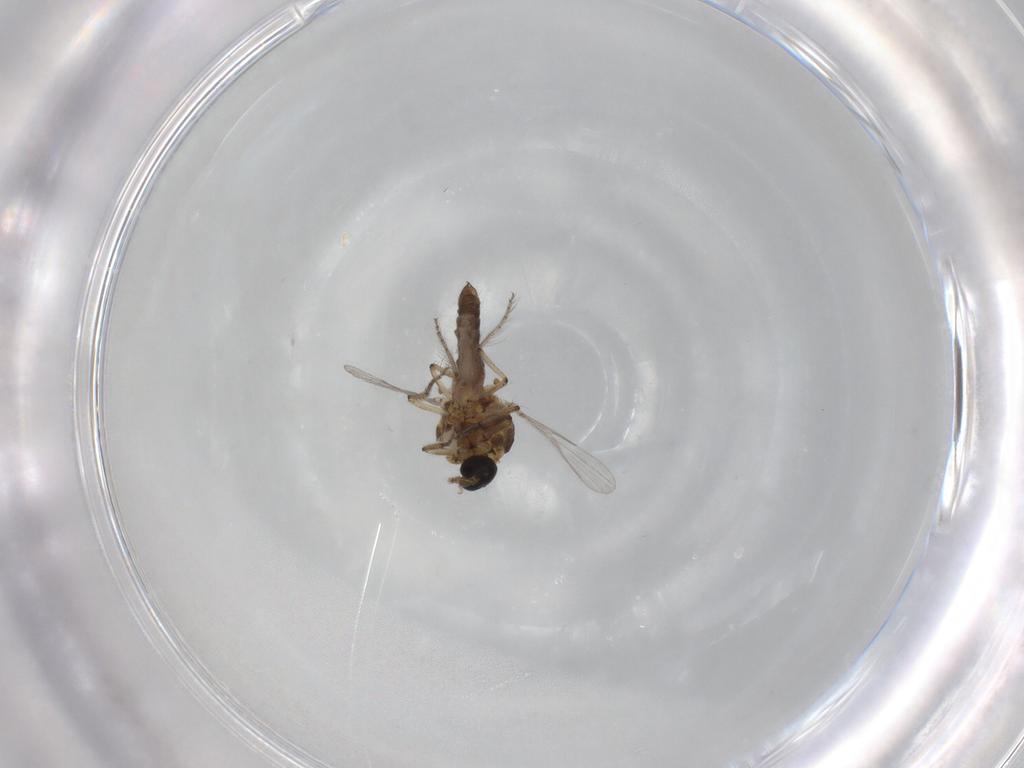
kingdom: Animalia
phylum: Arthropoda
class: Insecta
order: Diptera
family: Ceratopogonidae
